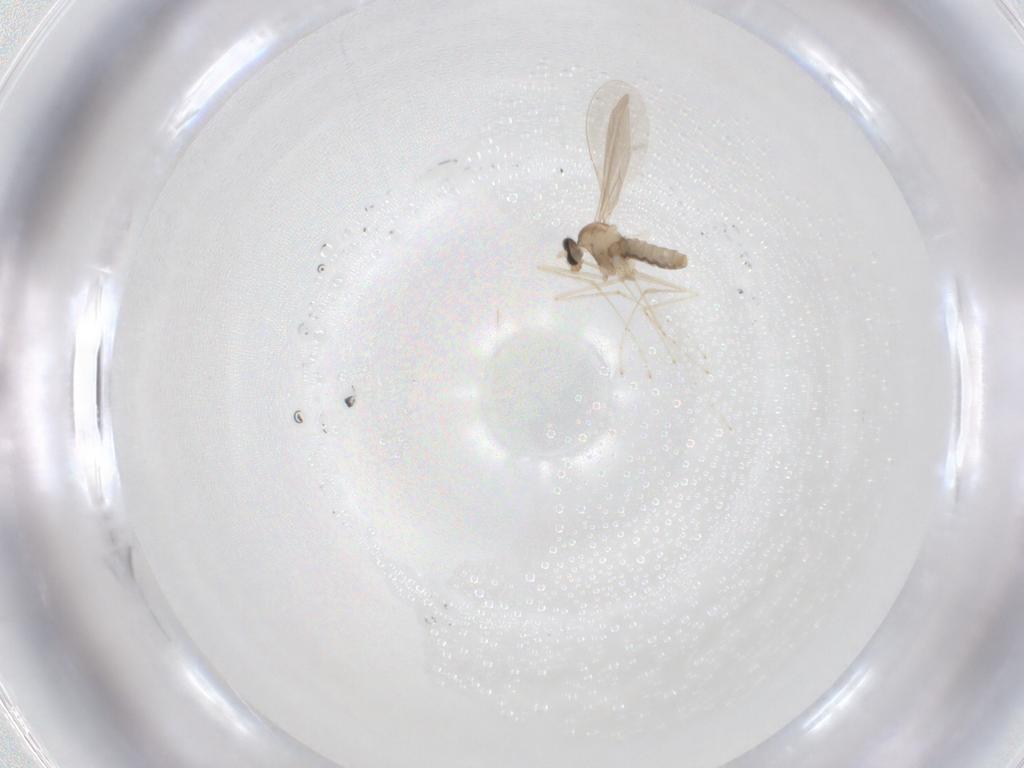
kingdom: Animalia
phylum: Arthropoda
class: Insecta
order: Diptera
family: Cecidomyiidae
